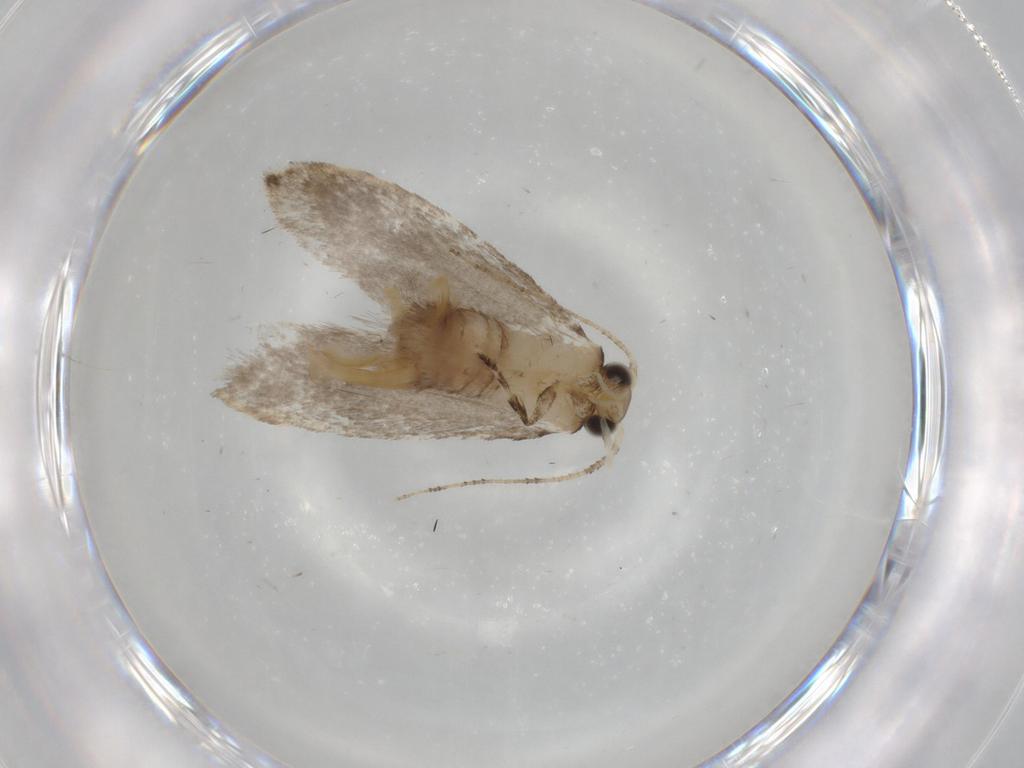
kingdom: Animalia
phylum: Arthropoda
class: Insecta
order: Lepidoptera
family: Tineidae
